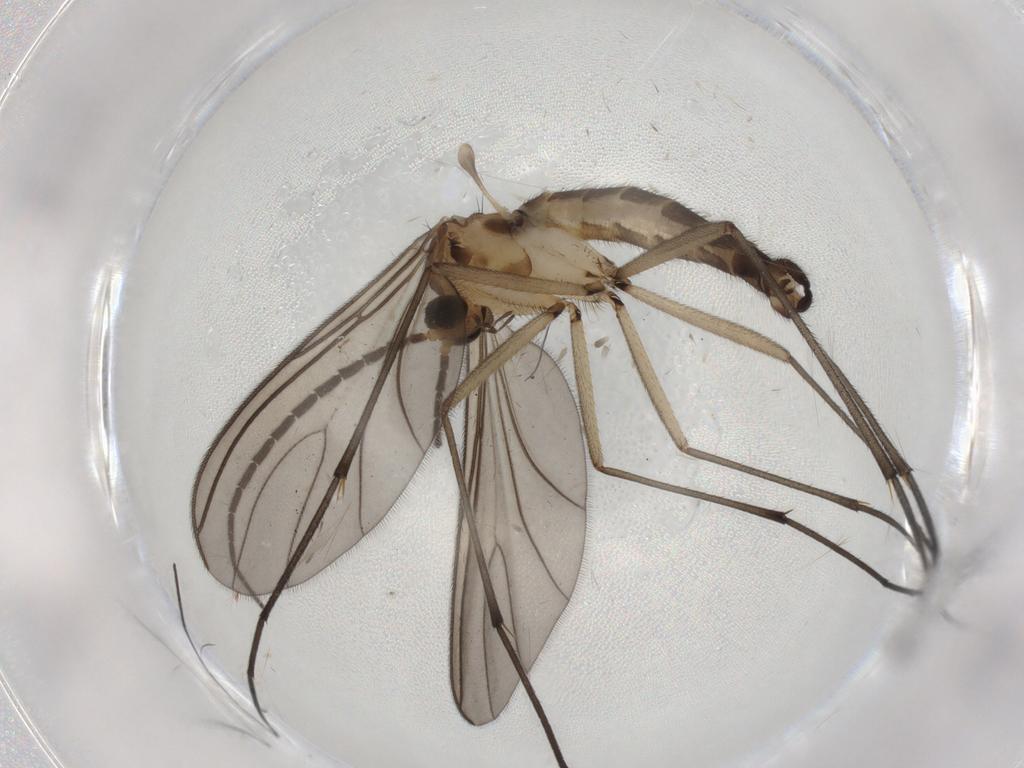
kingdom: Animalia
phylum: Arthropoda
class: Insecta
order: Diptera
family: Sciaridae
